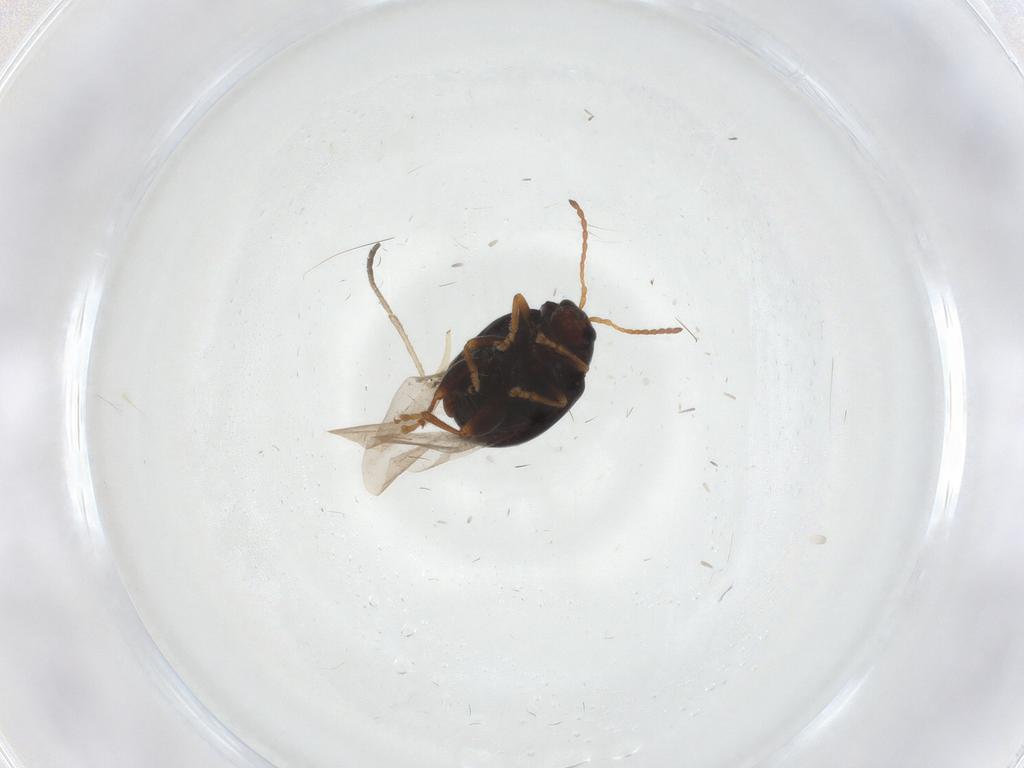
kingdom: Animalia
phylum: Arthropoda
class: Insecta
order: Coleoptera
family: Chrysomelidae
